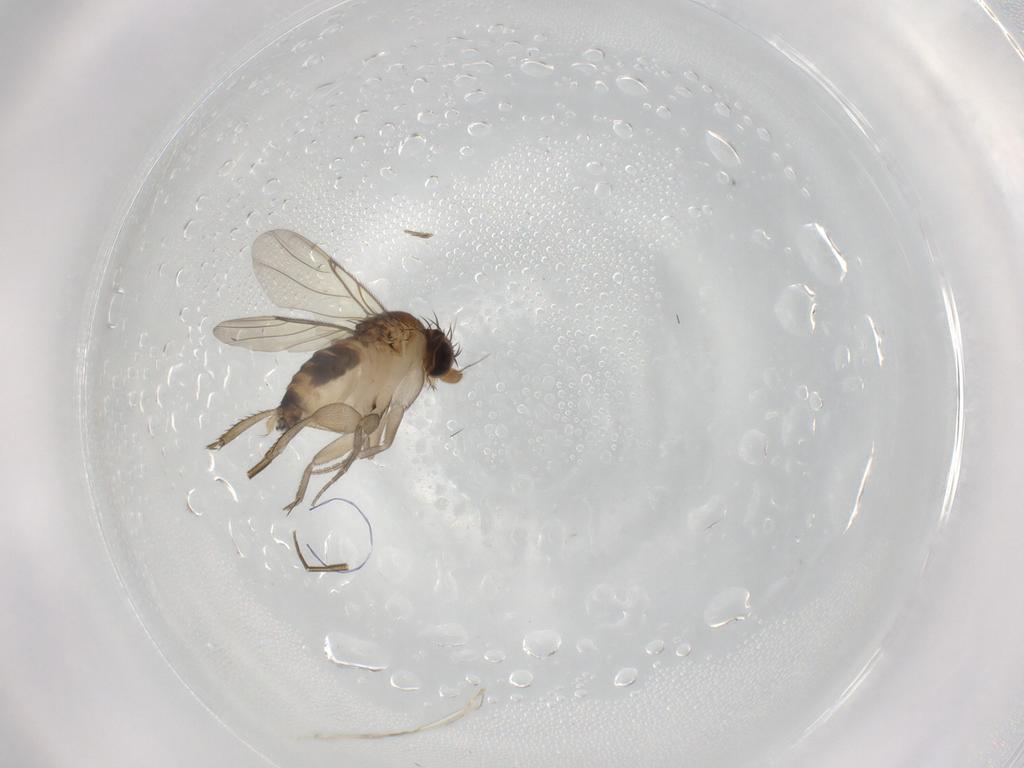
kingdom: Animalia
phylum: Arthropoda
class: Insecta
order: Diptera
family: Phoridae
